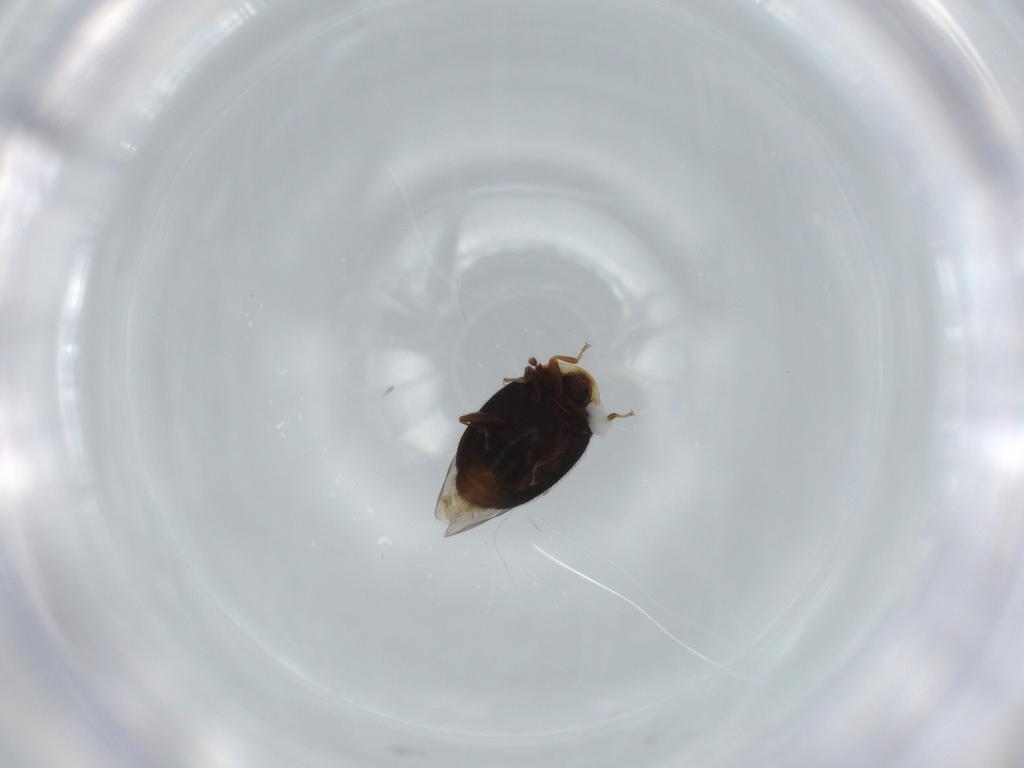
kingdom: Animalia
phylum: Arthropoda
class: Insecta
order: Coleoptera
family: Corylophidae
